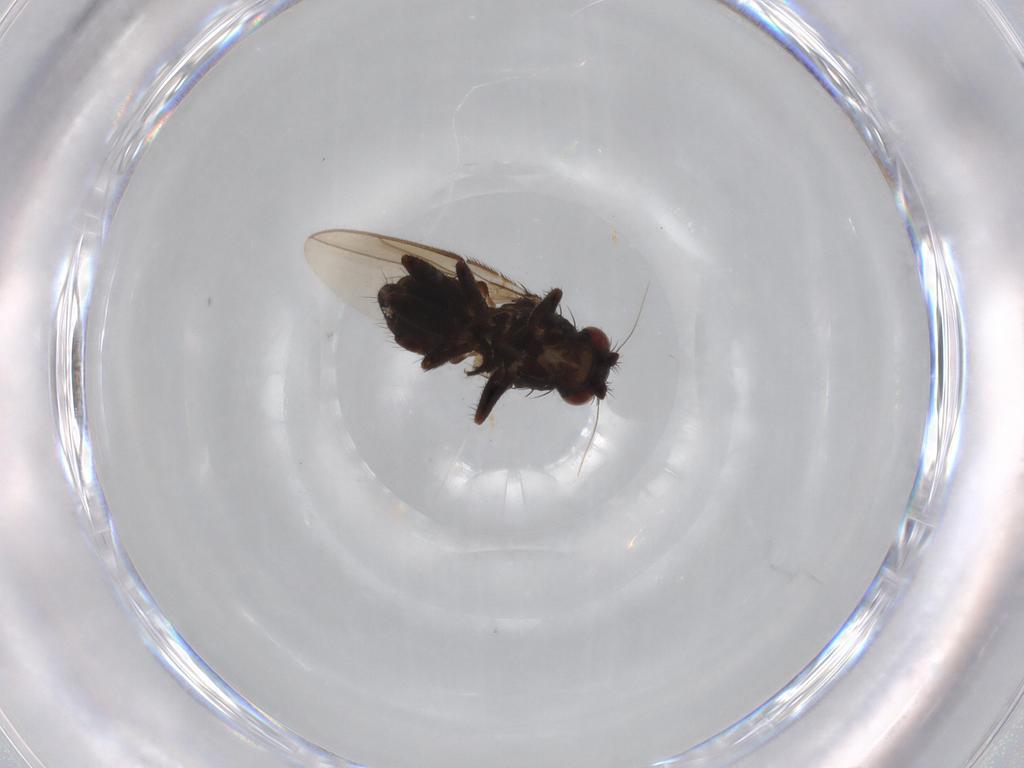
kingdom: Animalia
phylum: Arthropoda
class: Insecta
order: Diptera
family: Sphaeroceridae
